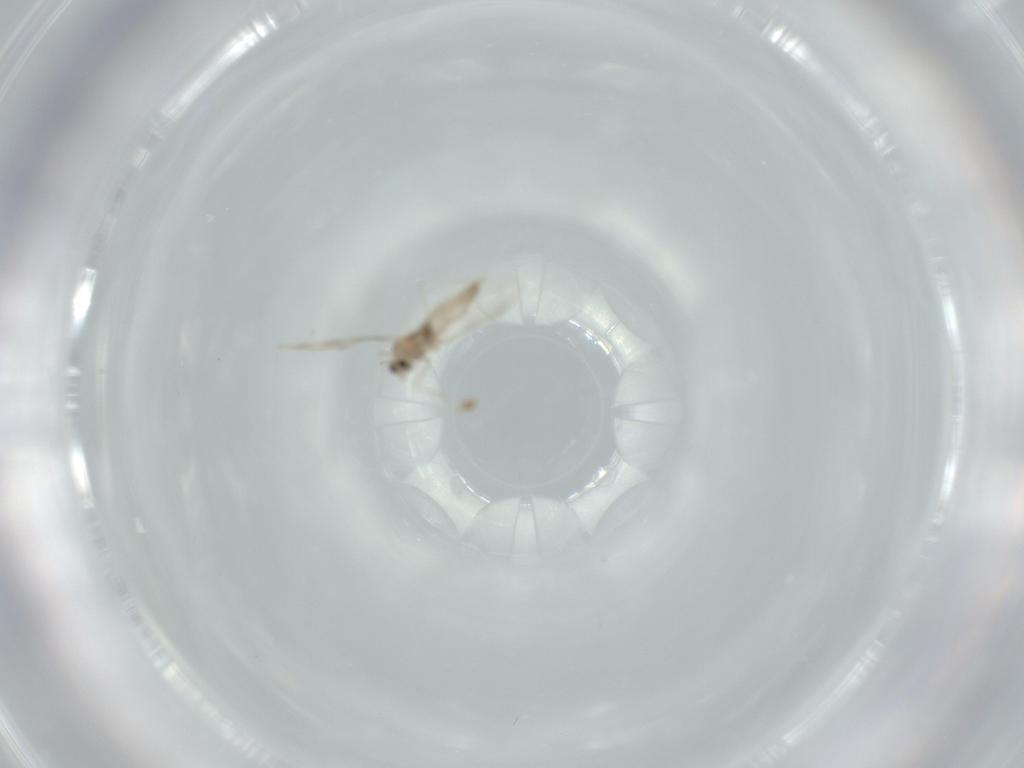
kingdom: Animalia
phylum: Arthropoda
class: Insecta
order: Diptera
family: Cecidomyiidae
